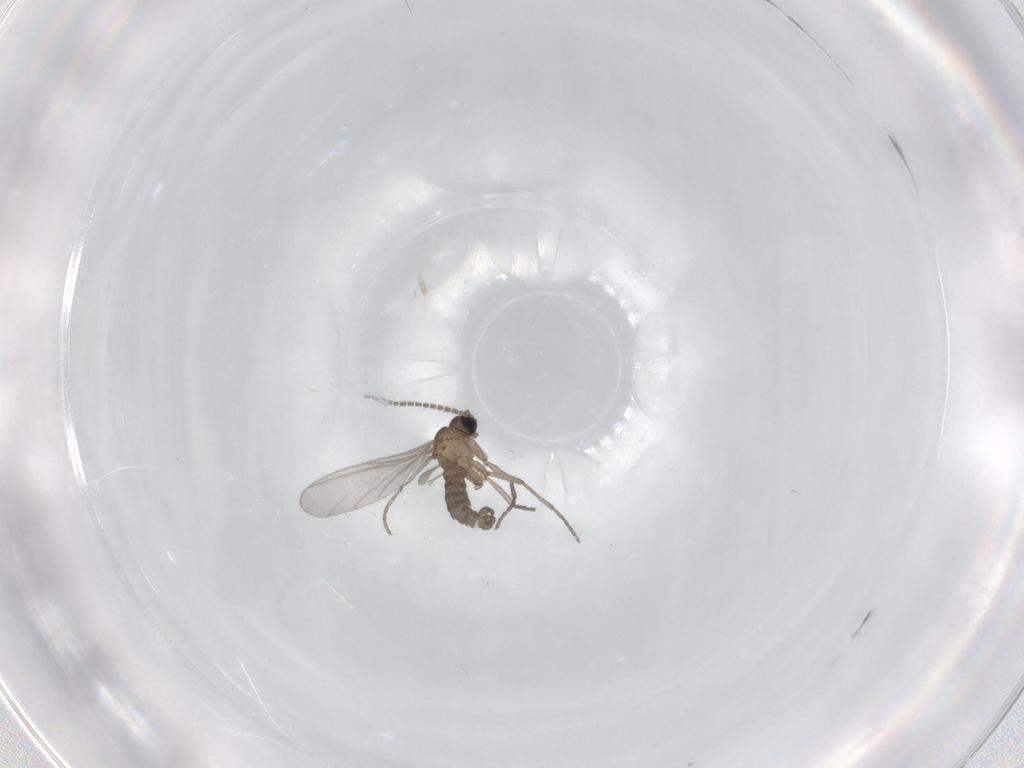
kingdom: Animalia
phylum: Arthropoda
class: Insecta
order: Diptera
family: Sciaridae
